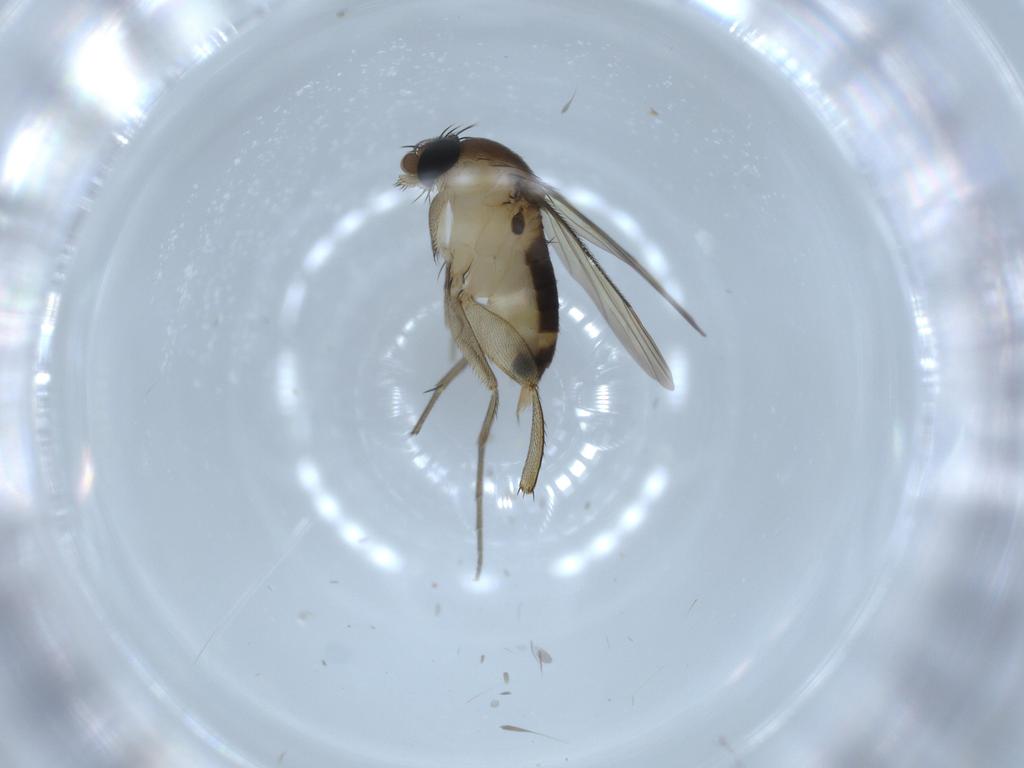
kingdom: Animalia
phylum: Arthropoda
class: Insecta
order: Diptera
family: Phoridae
